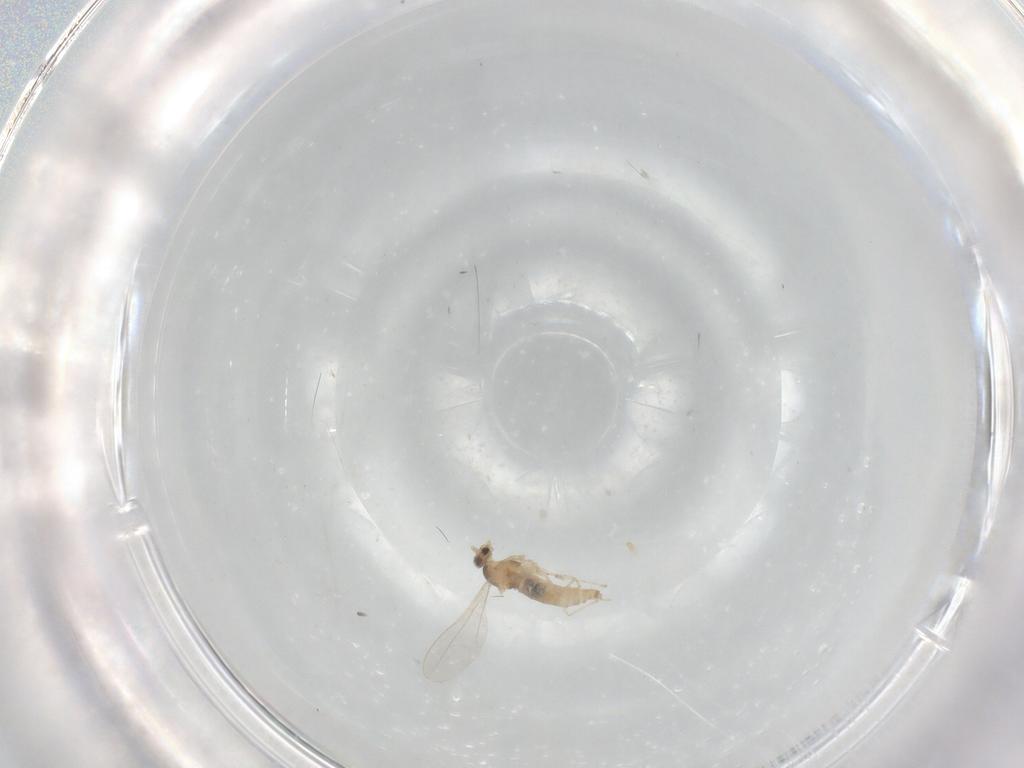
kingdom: Animalia
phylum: Arthropoda
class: Insecta
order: Diptera
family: Cecidomyiidae
